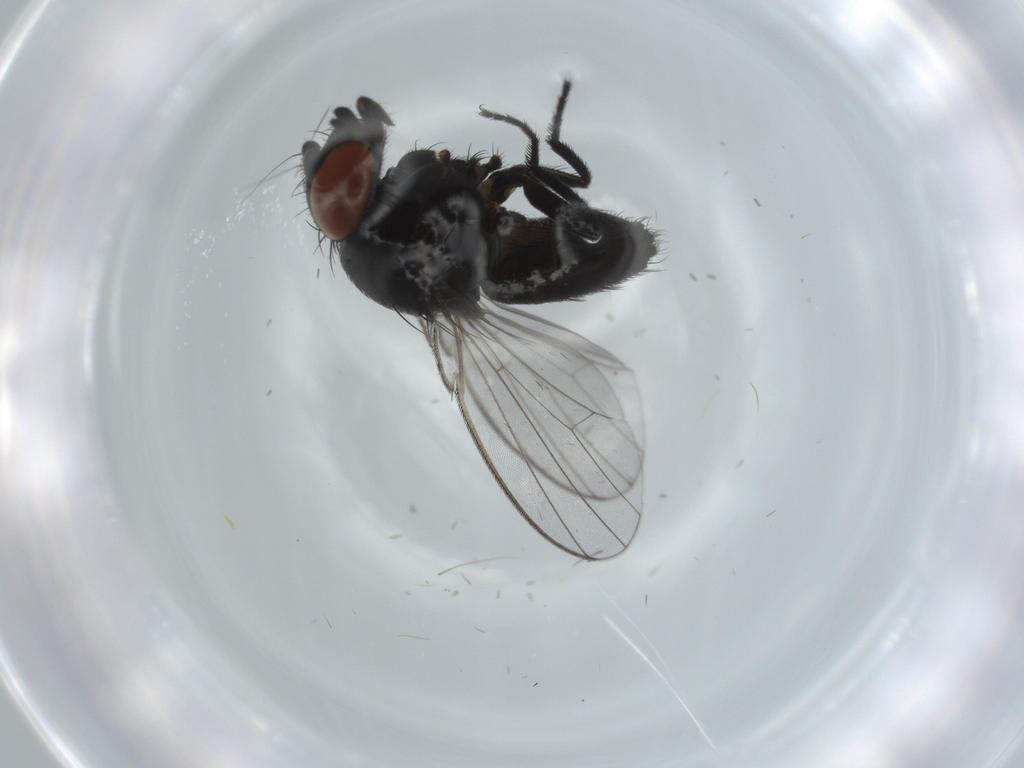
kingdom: Animalia
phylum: Arthropoda
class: Insecta
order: Diptera
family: Milichiidae
